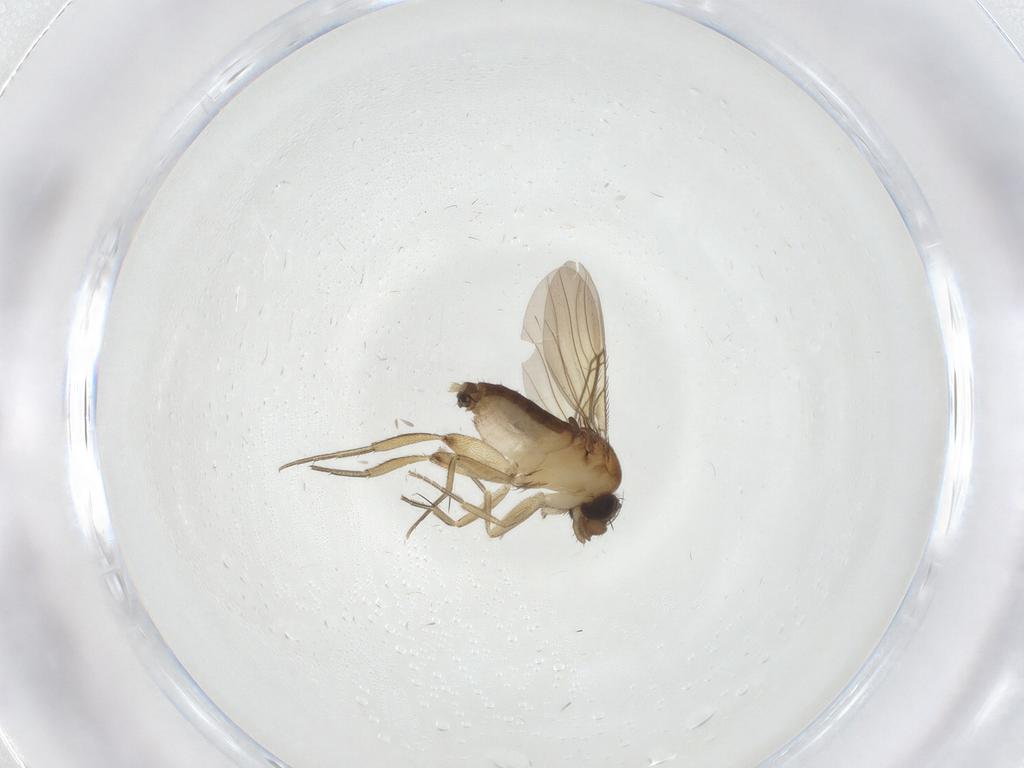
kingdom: Animalia
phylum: Arthropoda
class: Insecta
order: Diptera
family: Phoridae
